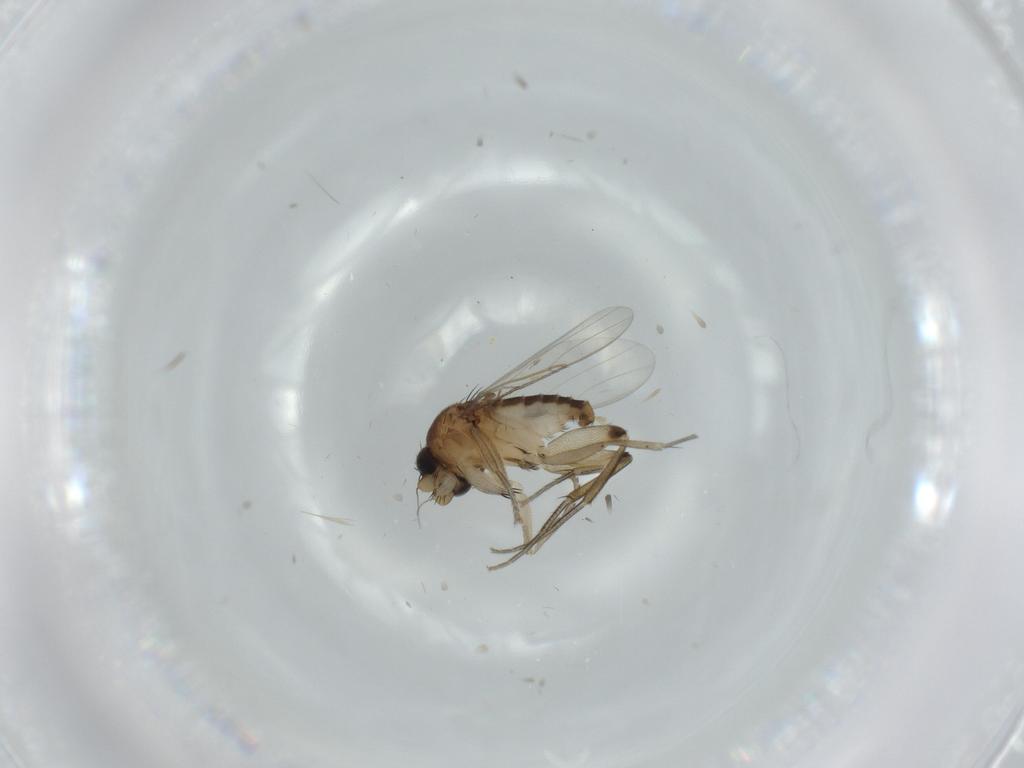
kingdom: Animalia
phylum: Arthropoda
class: Insecta
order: Diptera
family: Phoridae
